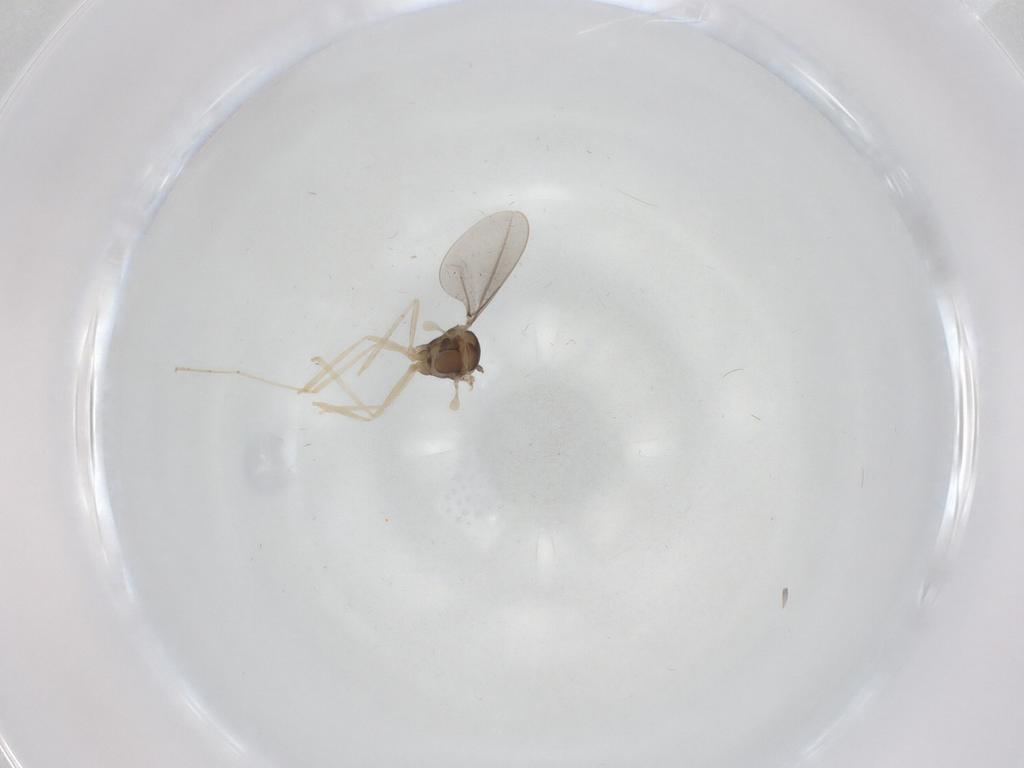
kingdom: Animalia
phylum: Arthropoda
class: Insecta
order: Diptera
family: Cecidomyiidae
